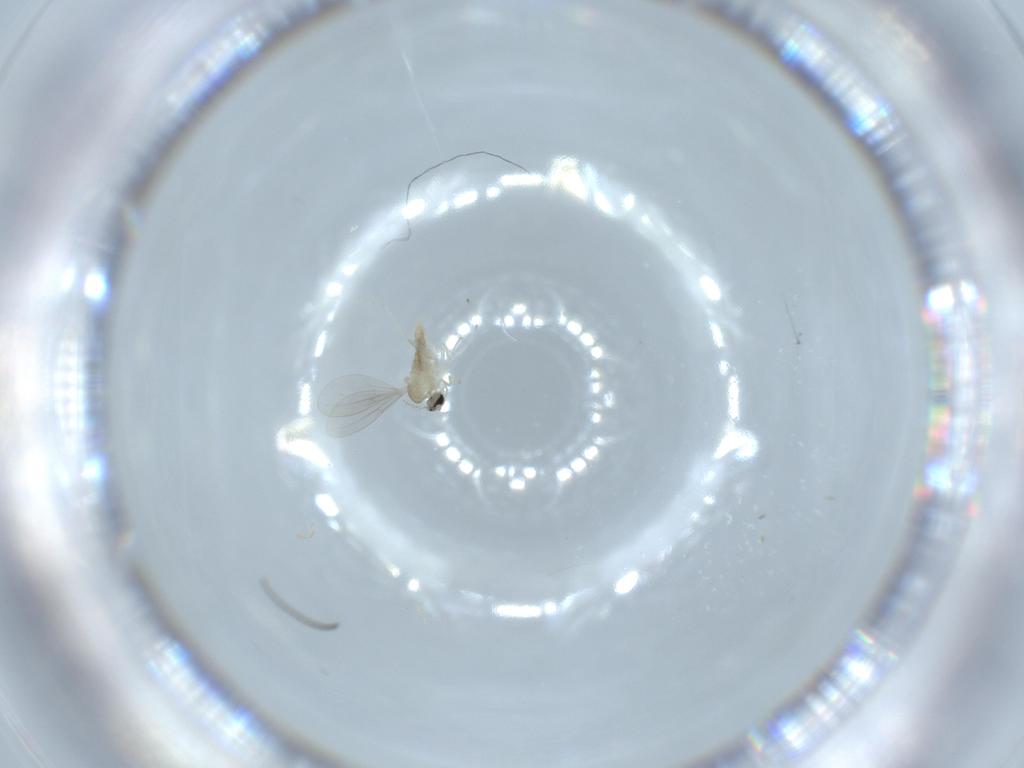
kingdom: Animalia
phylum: Arthropoda
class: Insecta
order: Diptera
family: Cecidomyiidae
